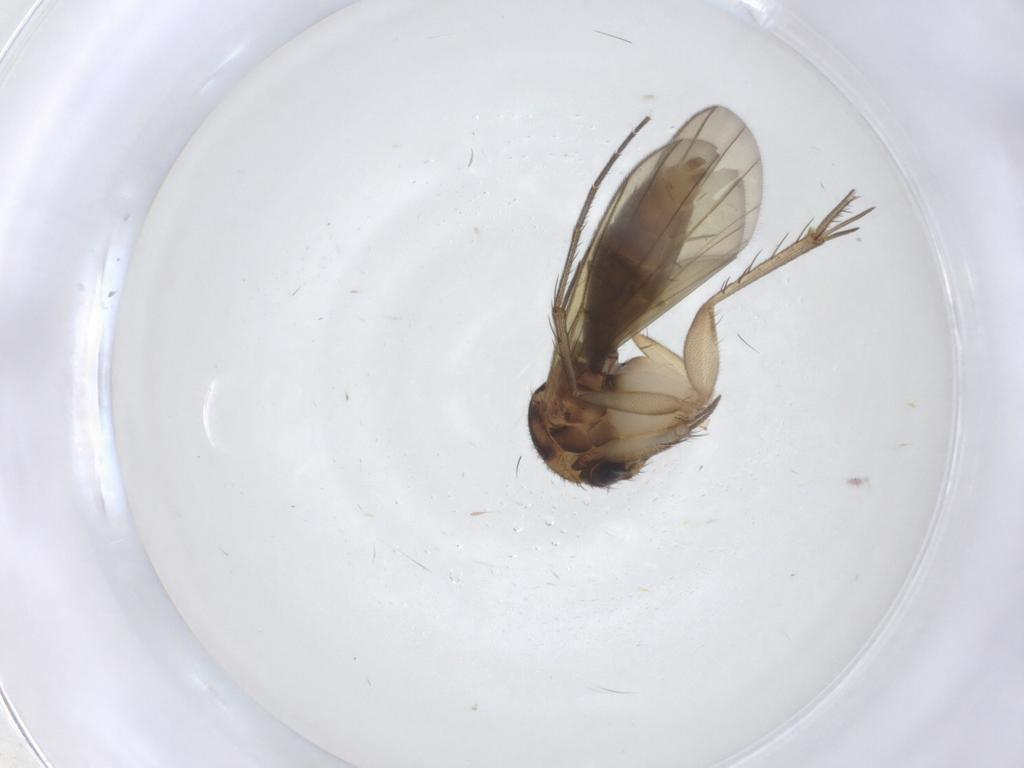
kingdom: Animalia
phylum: Arthropoda
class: Insecta
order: Diptera
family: Mycetophilidae
